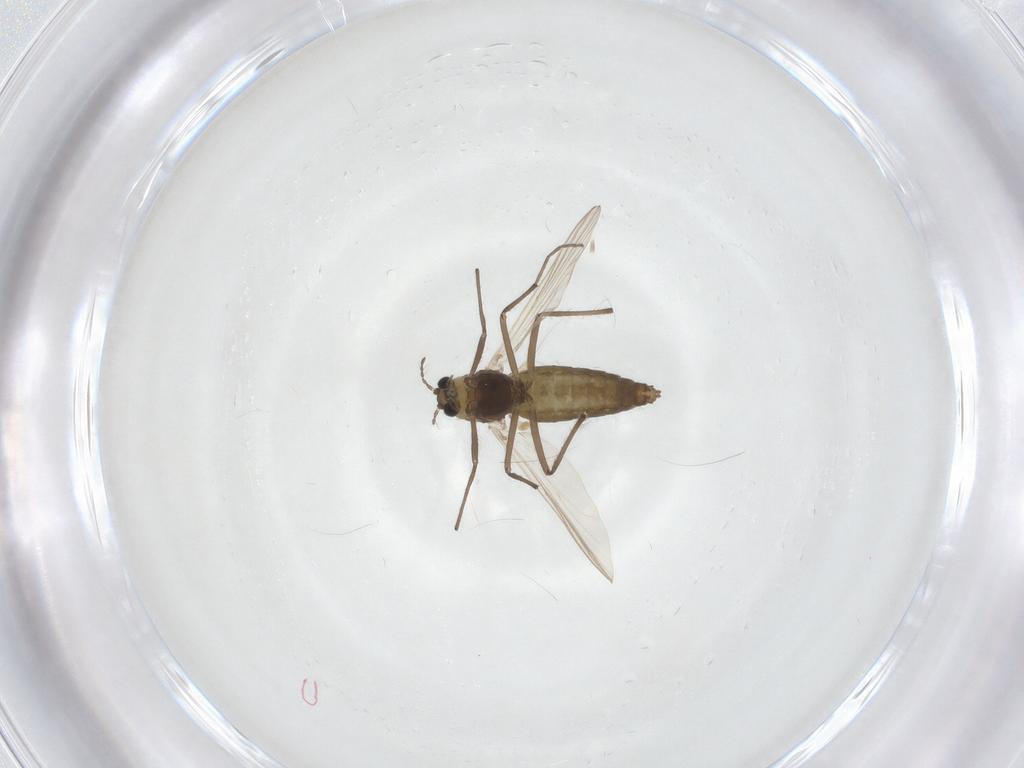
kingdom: Animalia
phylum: Arthropoda
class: Insecta
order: Diptera
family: Chironomidae
